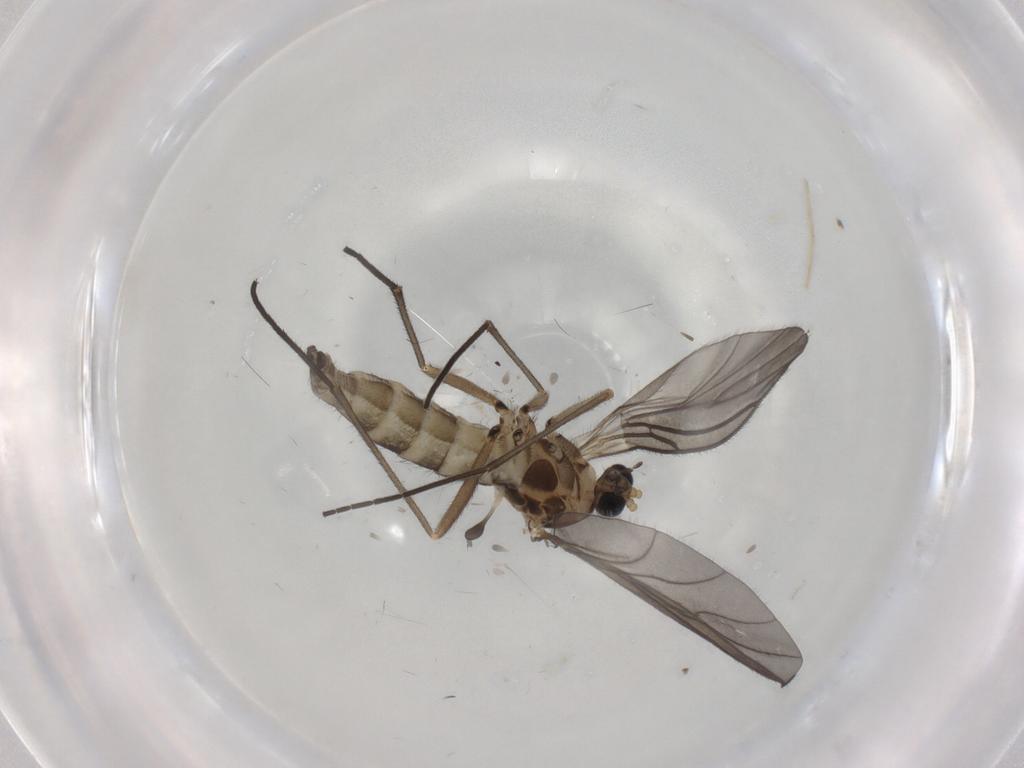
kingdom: Animalia
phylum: Arthropoda
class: Insecta
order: Diptera
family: Sciaridae
